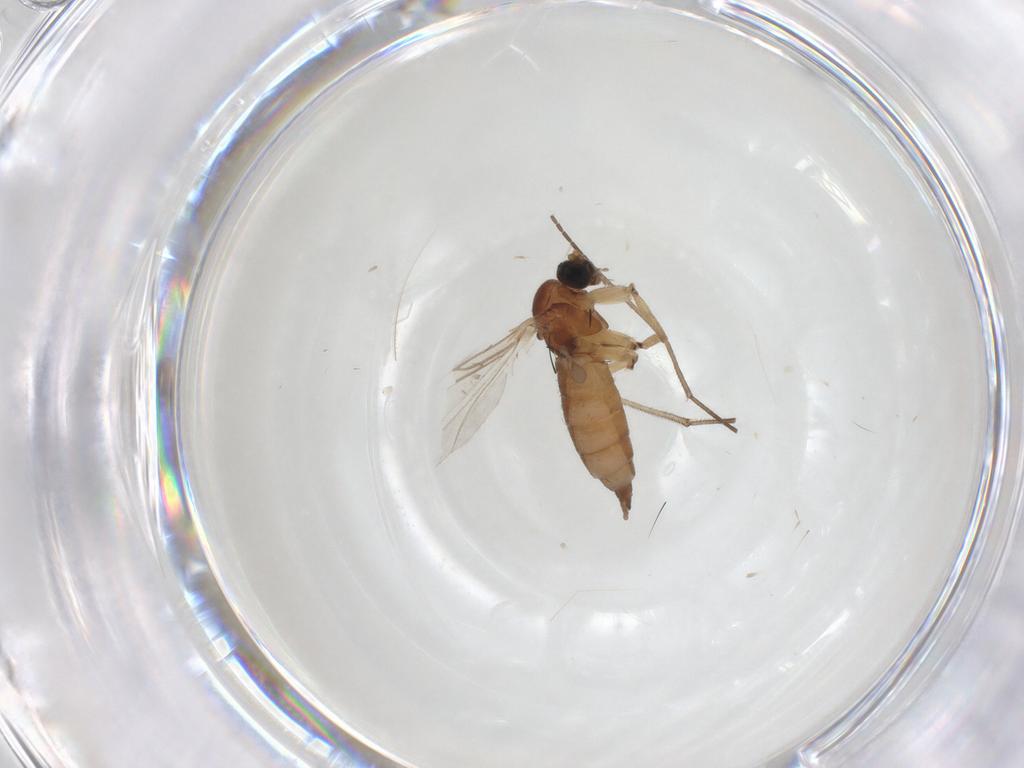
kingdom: Animalia
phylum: Arthropoda
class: Insecta
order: Diptera
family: Sciaridae
